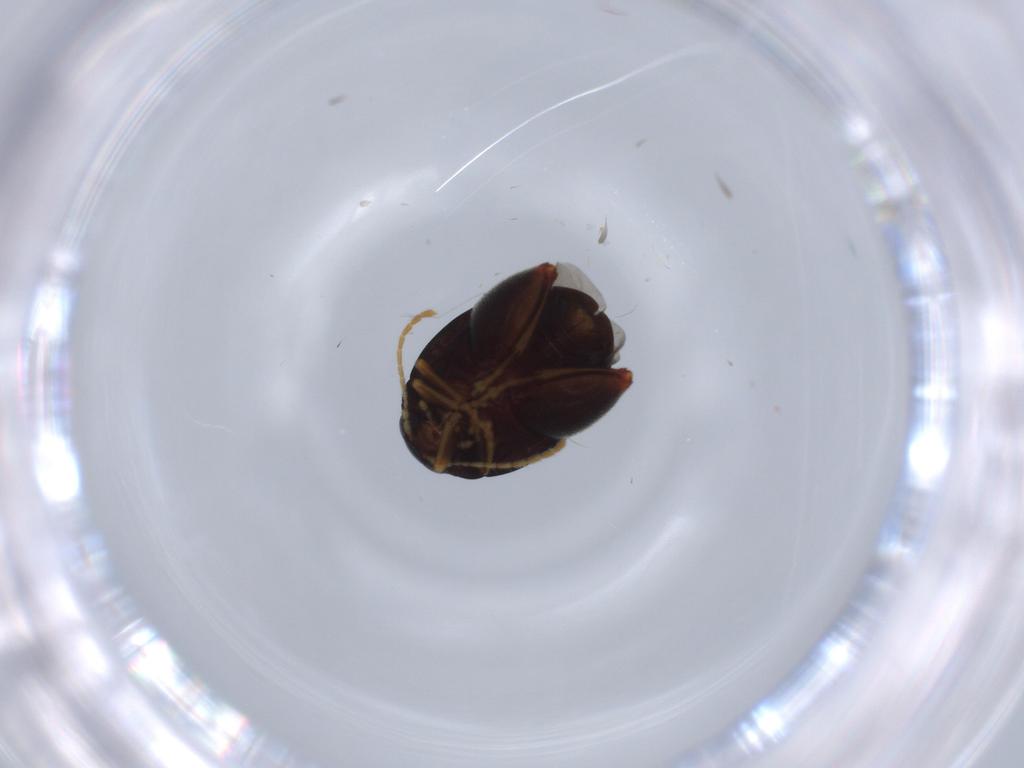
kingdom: Animalia
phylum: Arthropoda
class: Insecta
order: Coleoptera
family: Chrysomelidae
